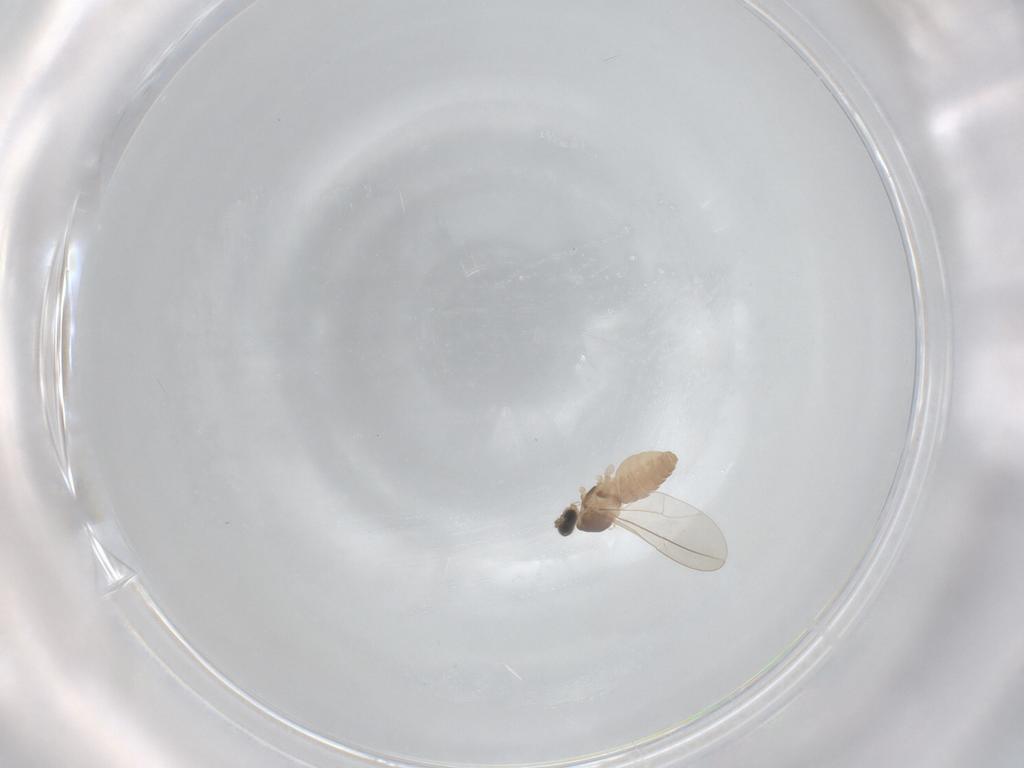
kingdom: Animalia
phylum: Arthropoda
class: Insecta
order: Diptera
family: Cecidomyiidae
